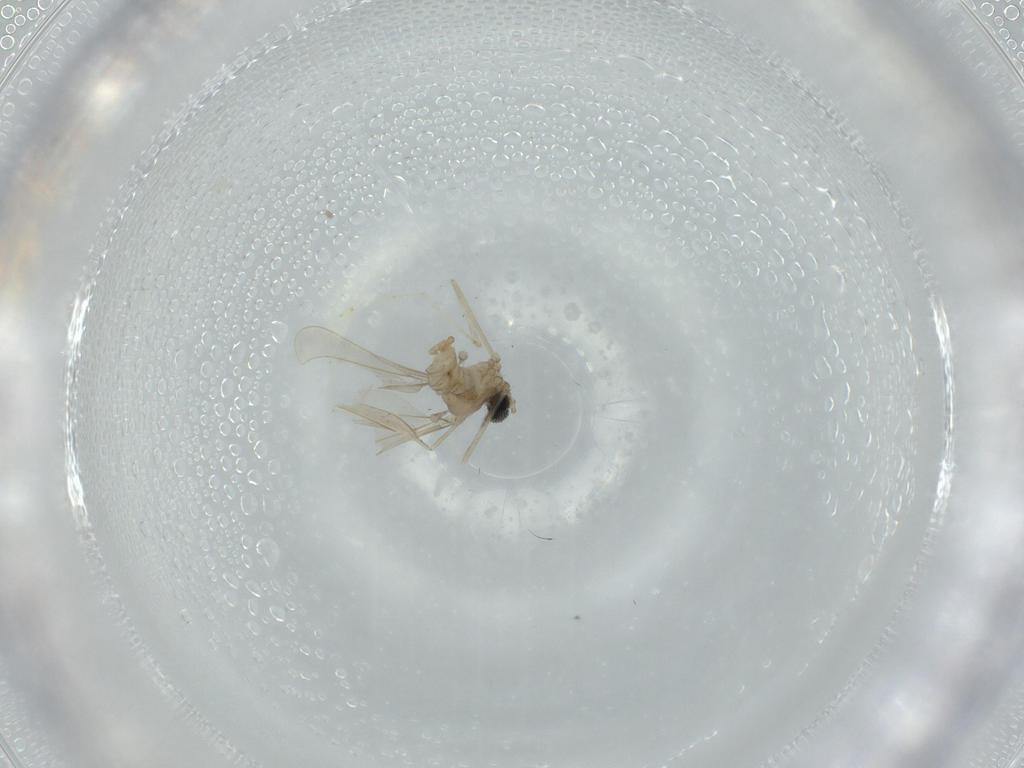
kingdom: Animalia
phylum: Arthropoda
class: Insecta
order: Diptera
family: Cecidomyiidae
